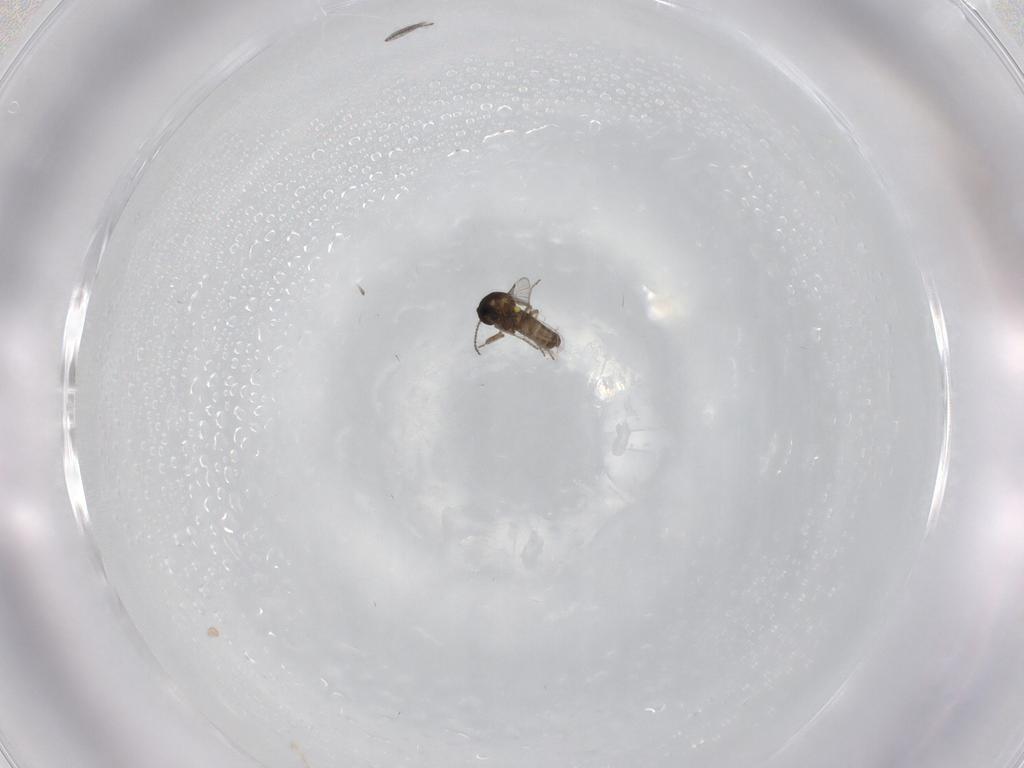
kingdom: Animalia
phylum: Arthropoda
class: Insecta
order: Diptera
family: Ceratopogonidae
